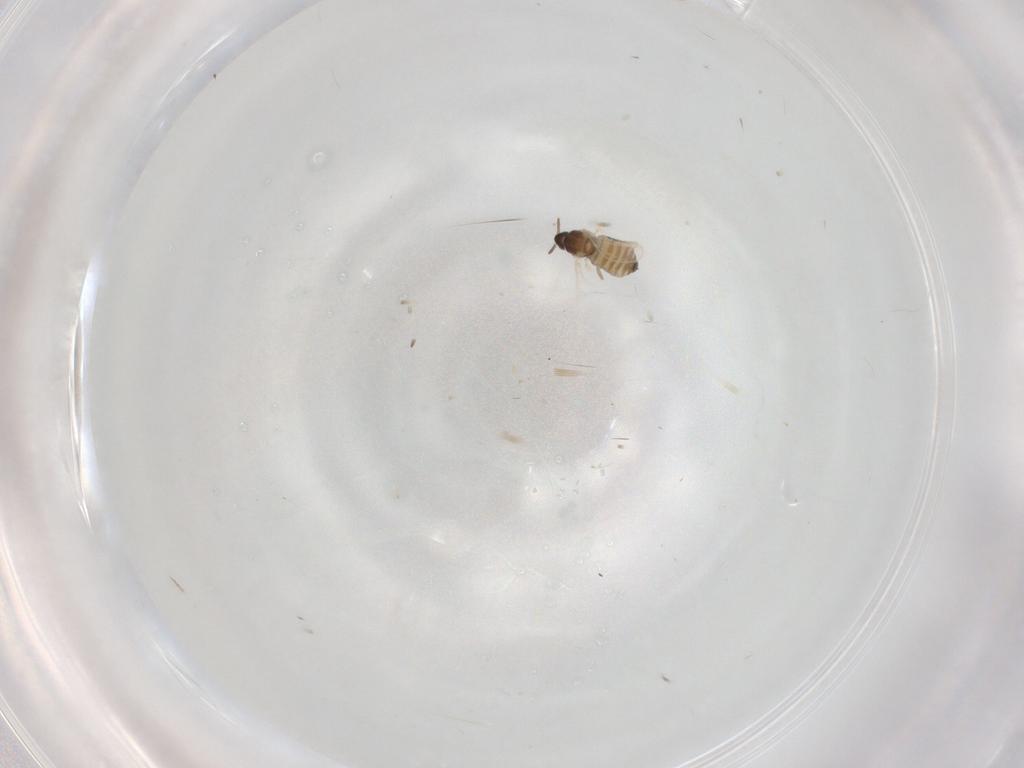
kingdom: Animalia
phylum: Arthropoda
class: Insecta
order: Diptera
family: Cecidomyiidae
